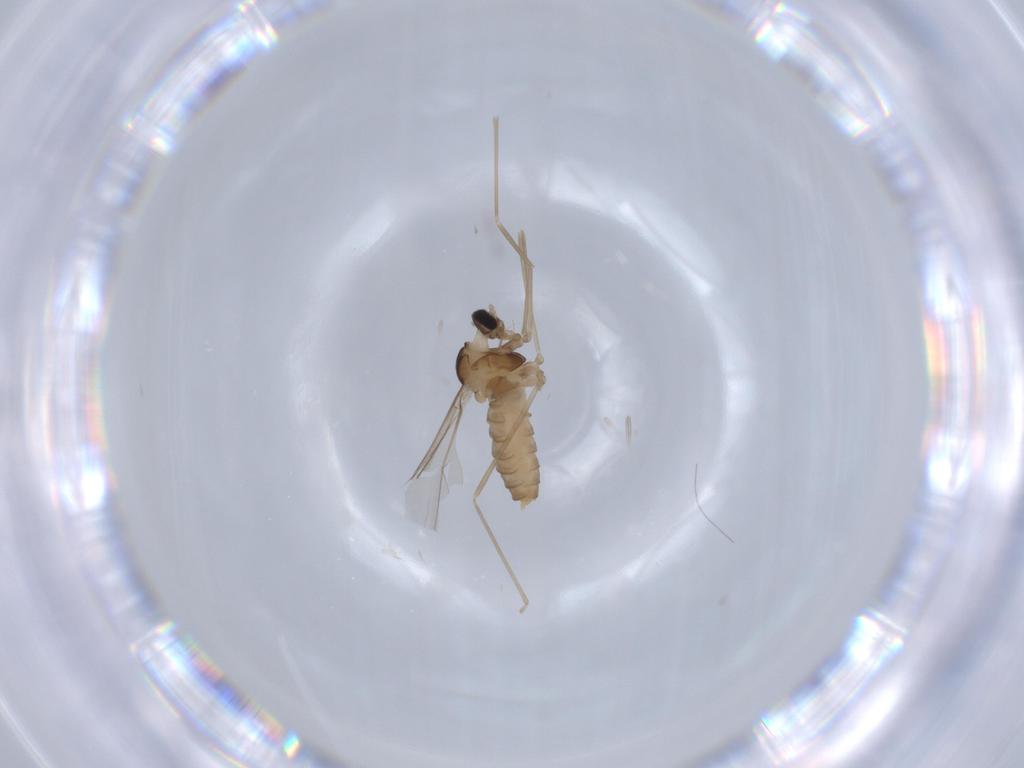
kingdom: Animalia
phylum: Arthropoda
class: Insecta
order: Diptera
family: Cecidomyiidae
